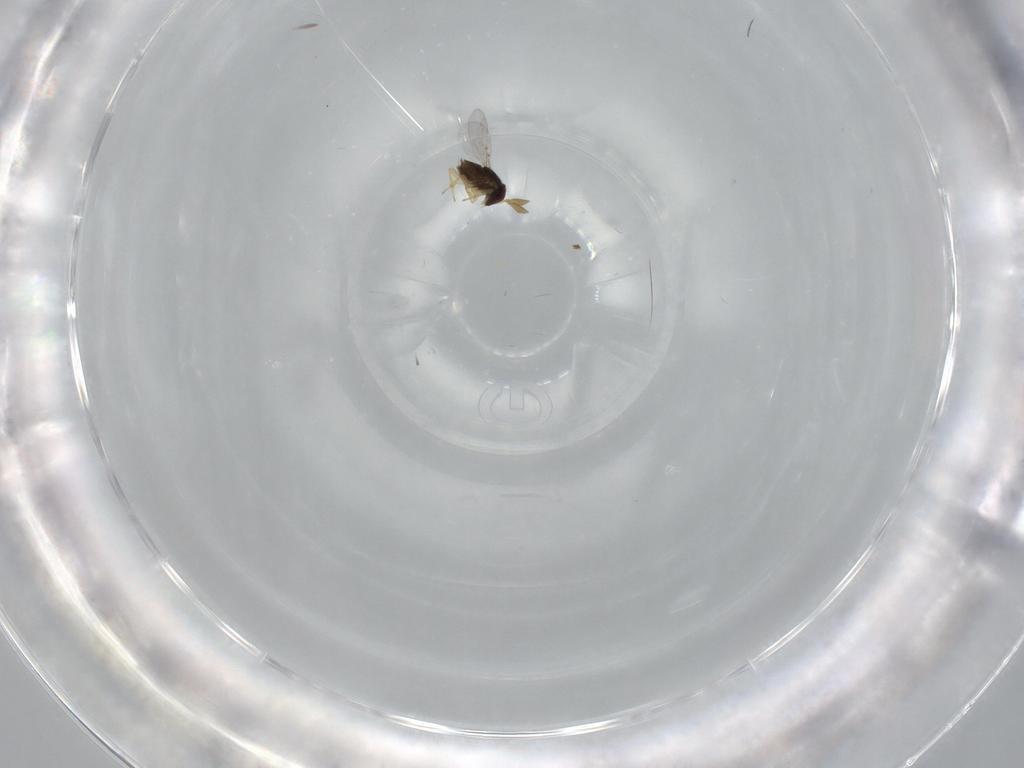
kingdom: Animalia
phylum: Arthropoda
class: Insecta
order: Hymenoptera
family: Encyrtidae
